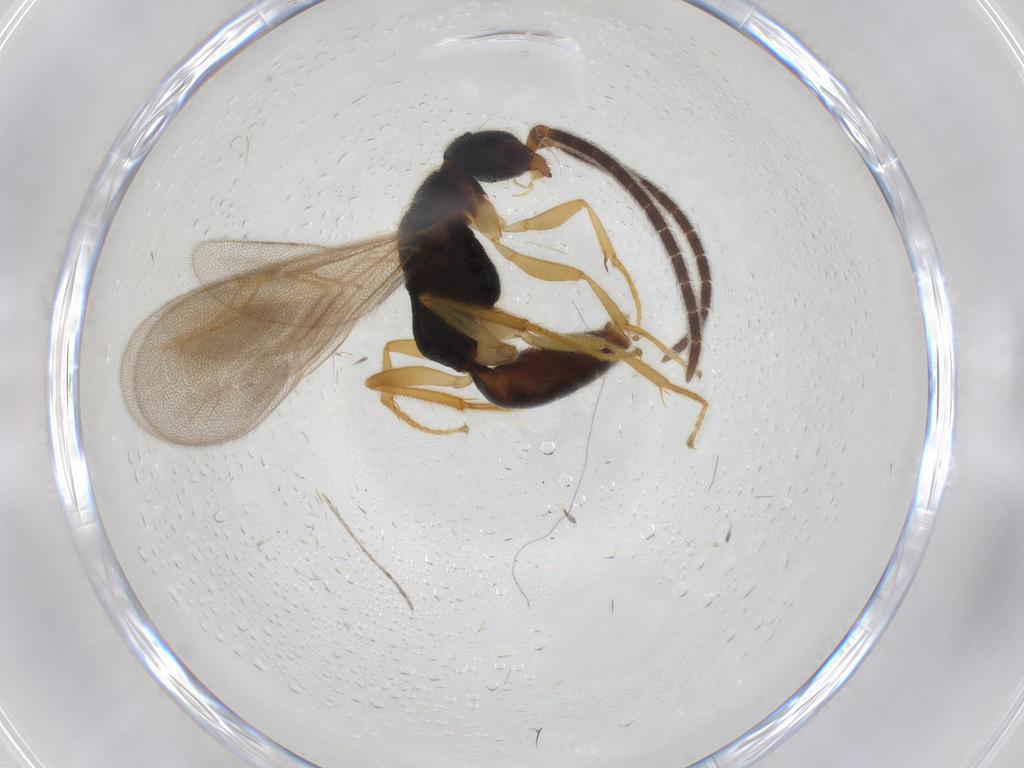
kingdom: Animalia
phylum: Arthropoda
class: Insecta
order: Hymenoptera
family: Bethylidae
